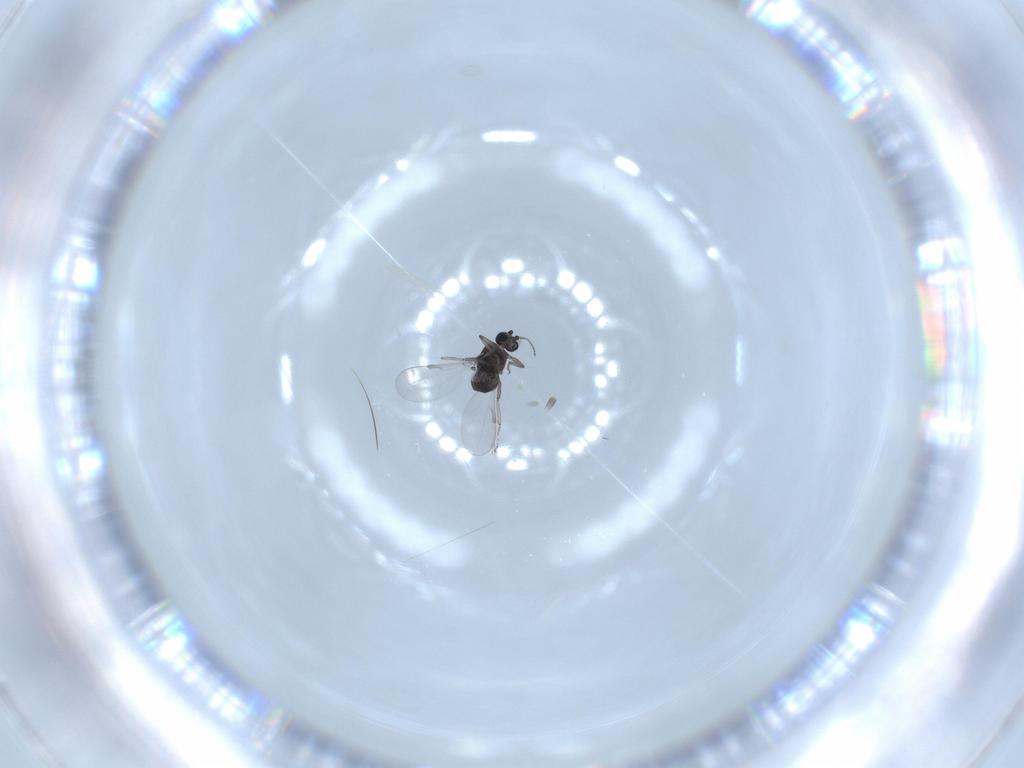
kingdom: Animalia
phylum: Arthropoda
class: Insecta
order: Diptera
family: Ceratopogonidae
